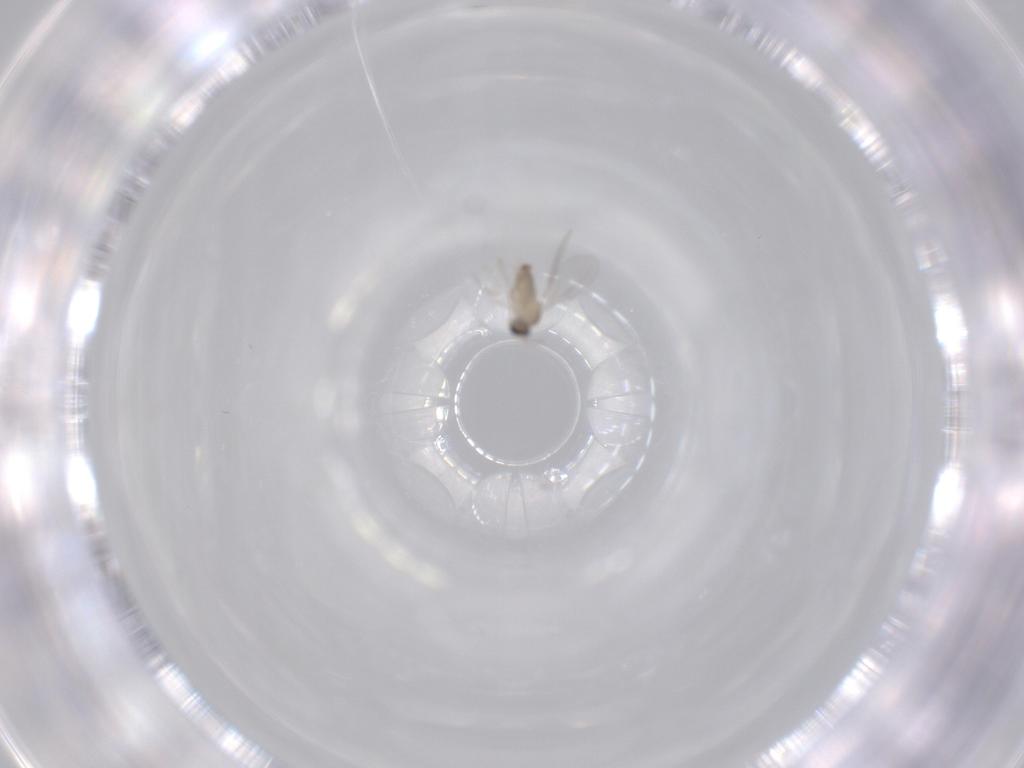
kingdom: Animalia
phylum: Arthropoda
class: Insecta
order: Diptera
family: Cecidomyiidae
